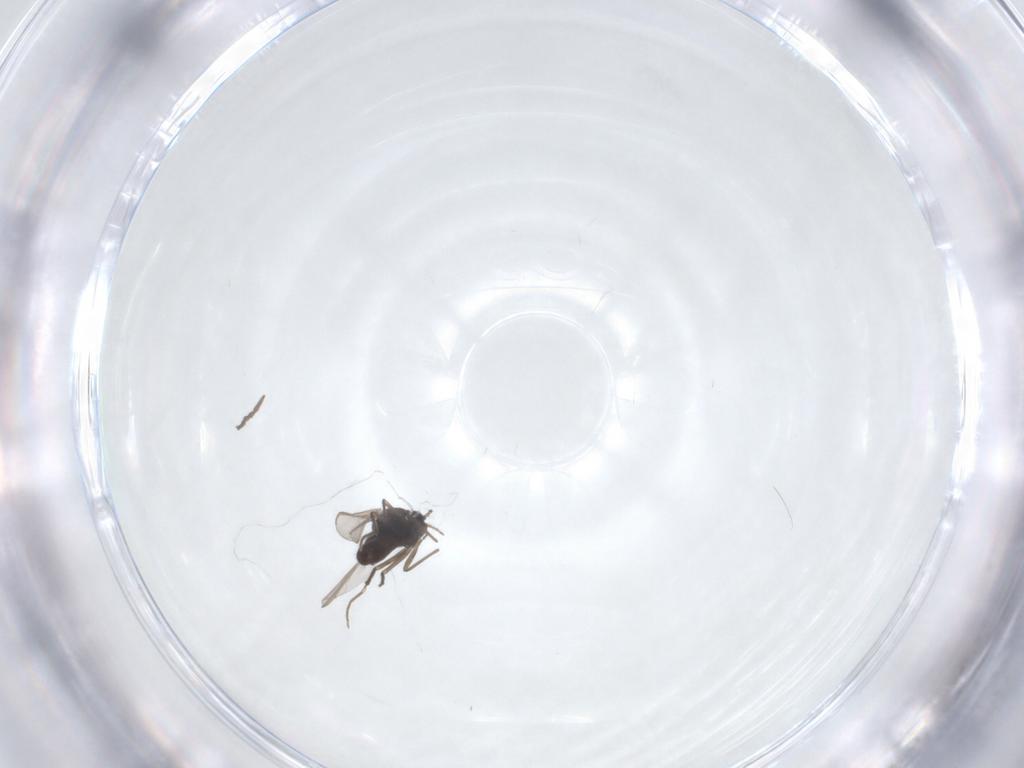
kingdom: Animalia
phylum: Arthropoda
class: Insecta
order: Diptera
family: Chironomidae
